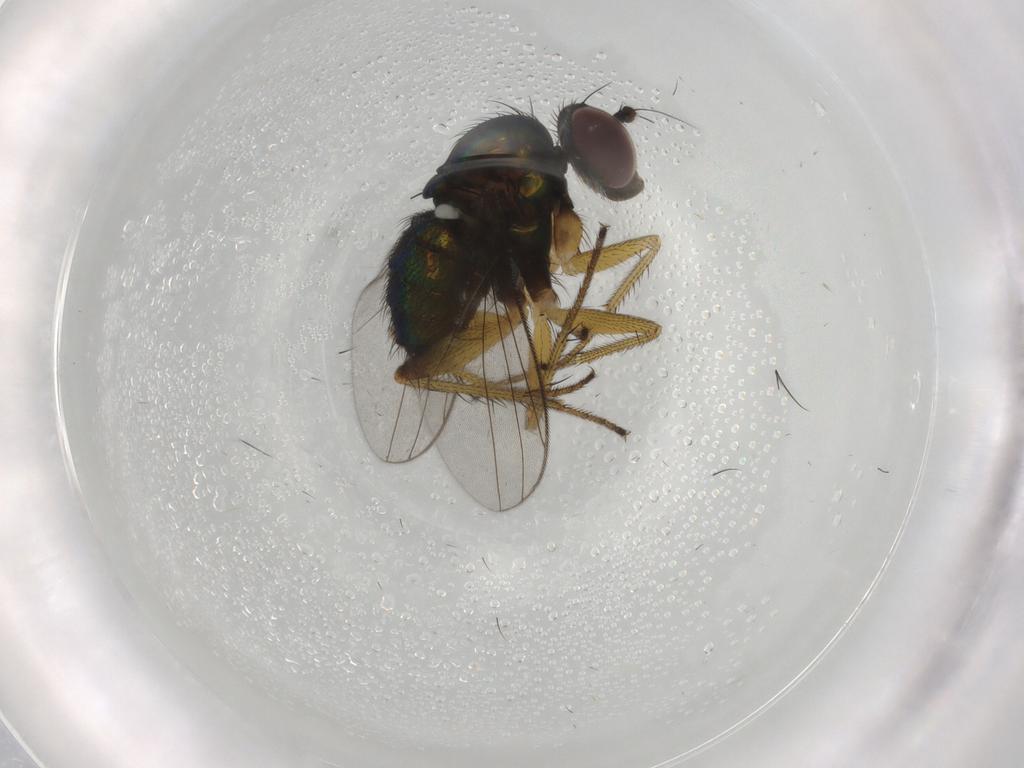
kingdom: Animalia
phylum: Arthropoda
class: Insecta
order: Diptera
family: Dolichopodidae
